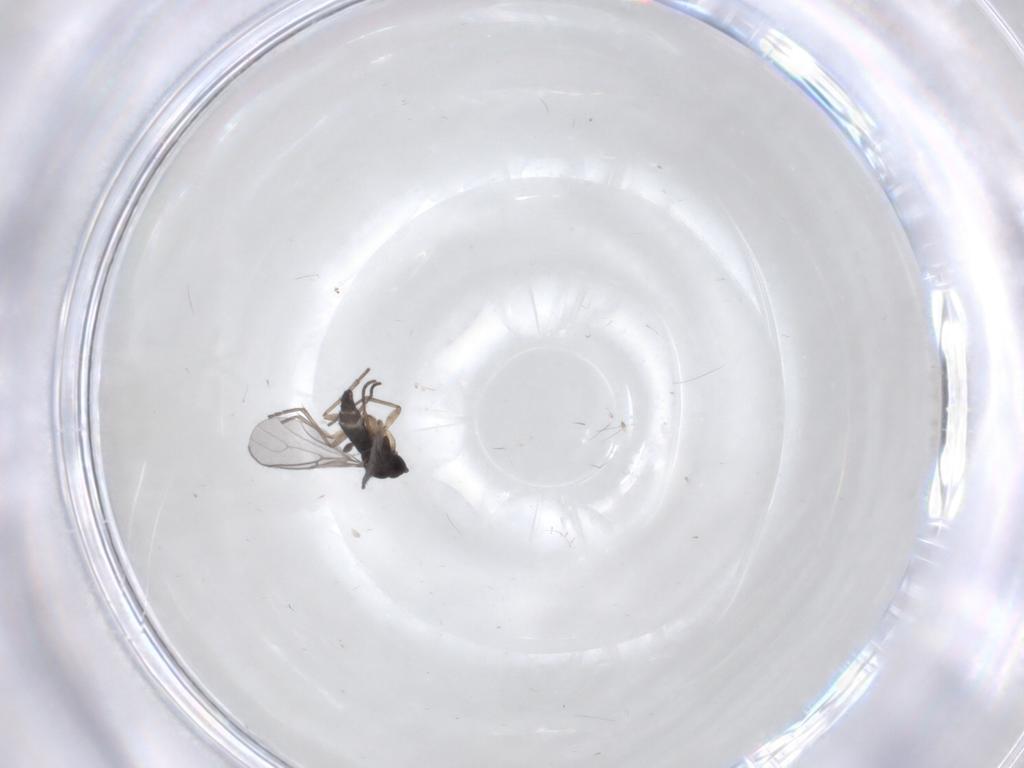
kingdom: Animalia
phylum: Arthropoda
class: Insecta
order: Diptera
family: Sciaridae
